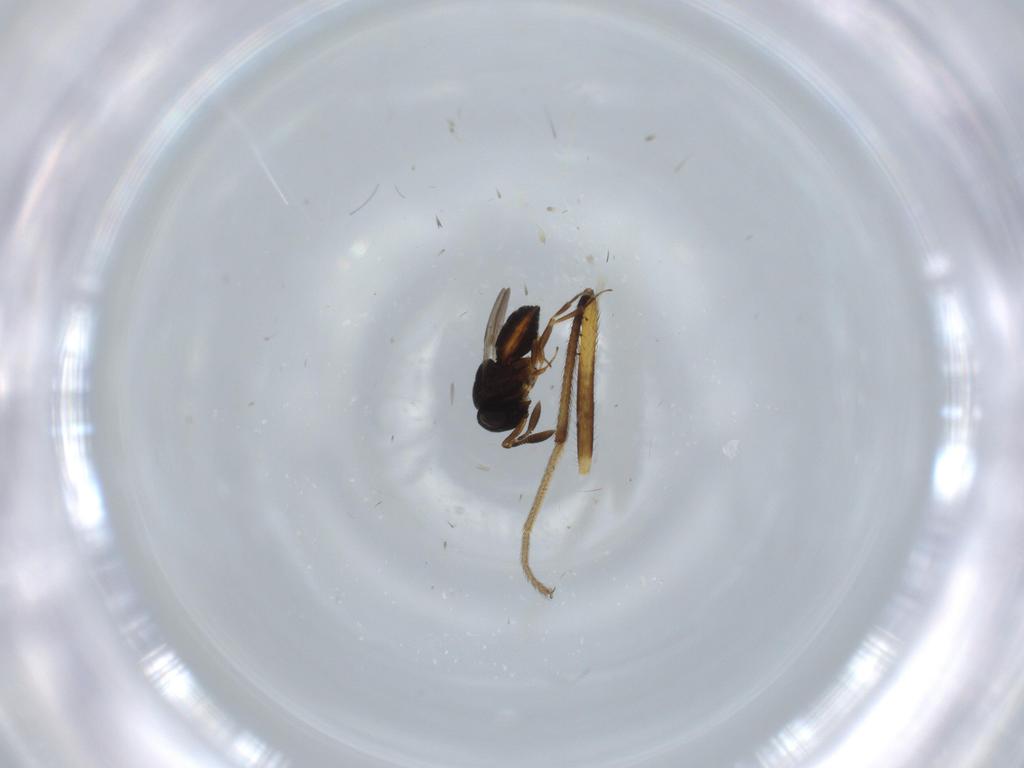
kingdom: Animalia
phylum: Arthropoda
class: Insecta
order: Hymenoptera
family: Scelionidae
